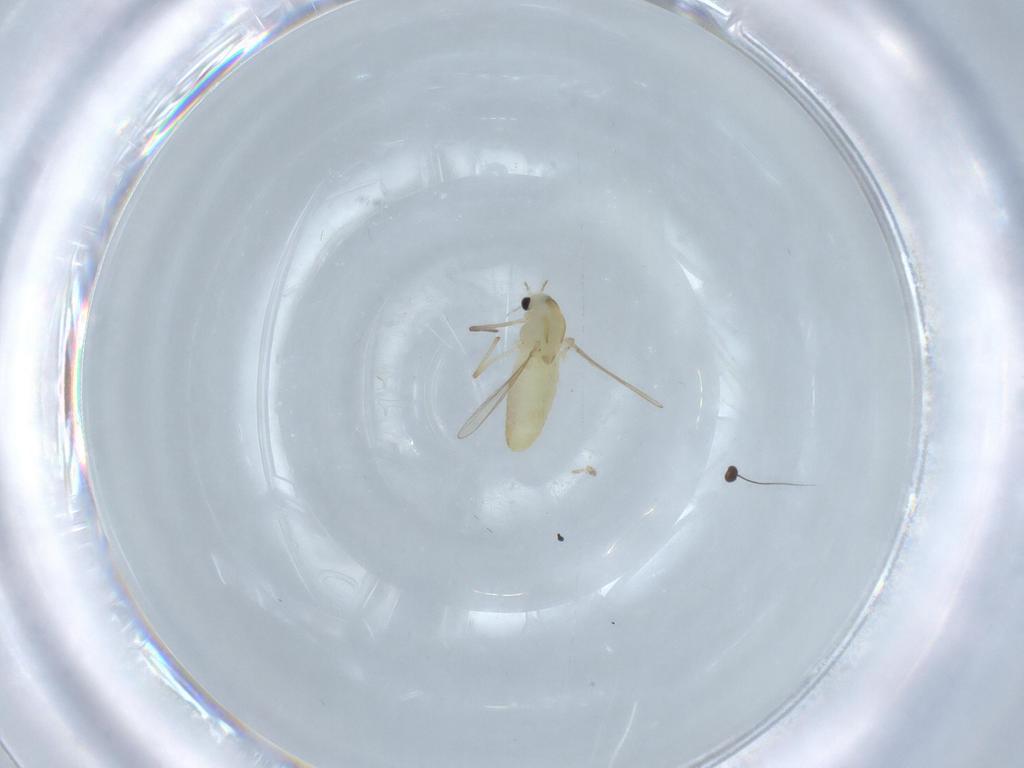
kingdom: Animalia
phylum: Arthropoda
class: Insecta
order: Diptera
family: Chironomidae
